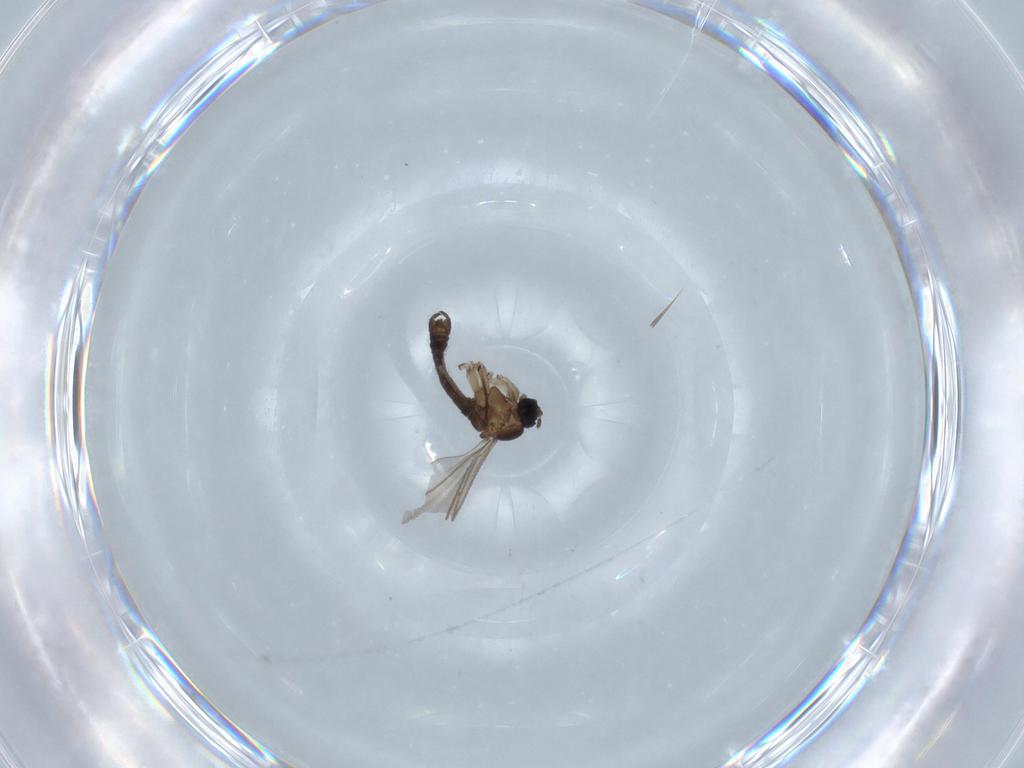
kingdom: Animalia
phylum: Arthropoda
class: Insecta
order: Diptera
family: Sciaridae
